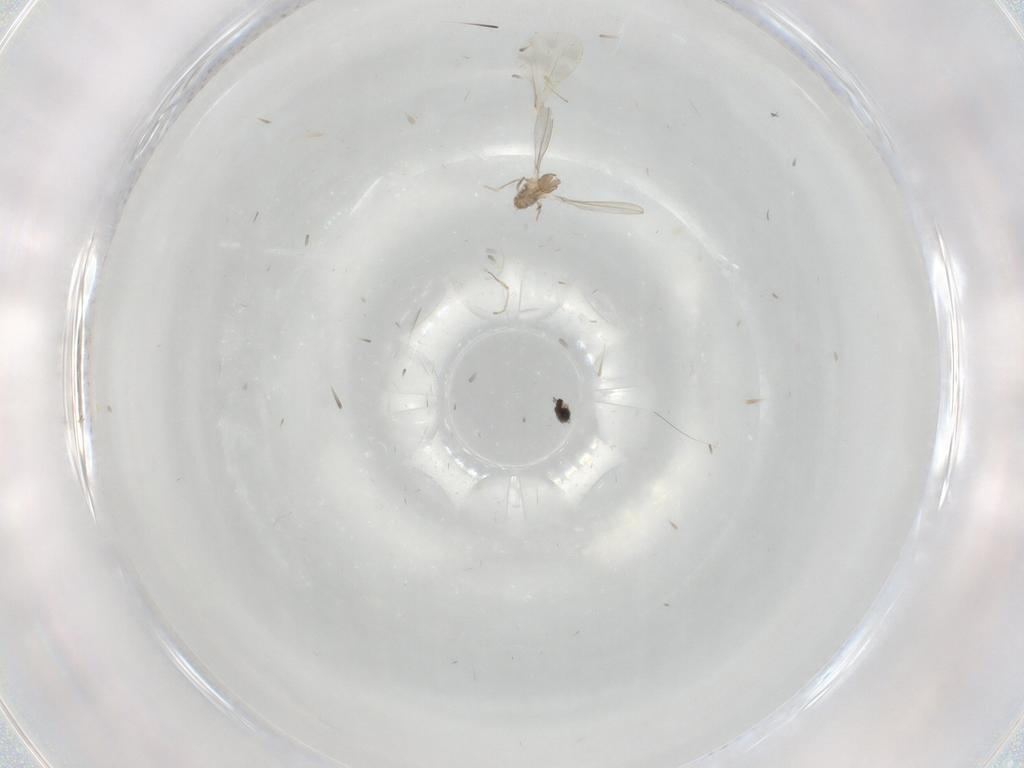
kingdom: Animalia
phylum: Arthropoda
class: Insecta
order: Diptera
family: Cecidomyiidae
